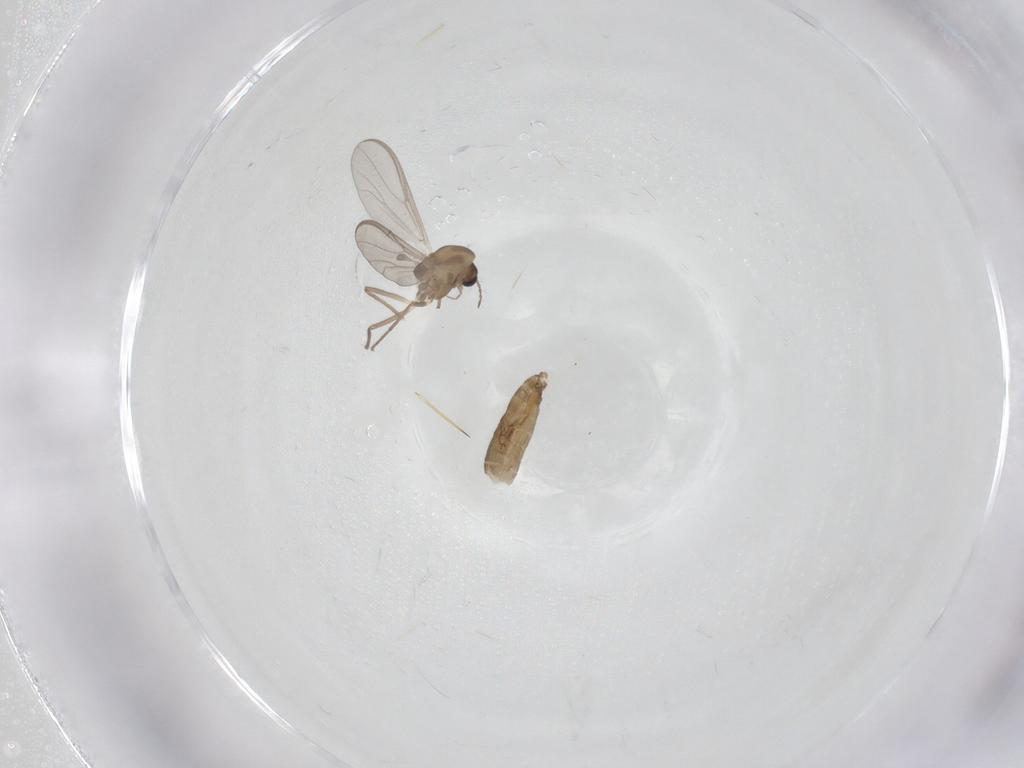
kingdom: Animalia
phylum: Arthropoda
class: Insecta
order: Diptera
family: Chironomidae
